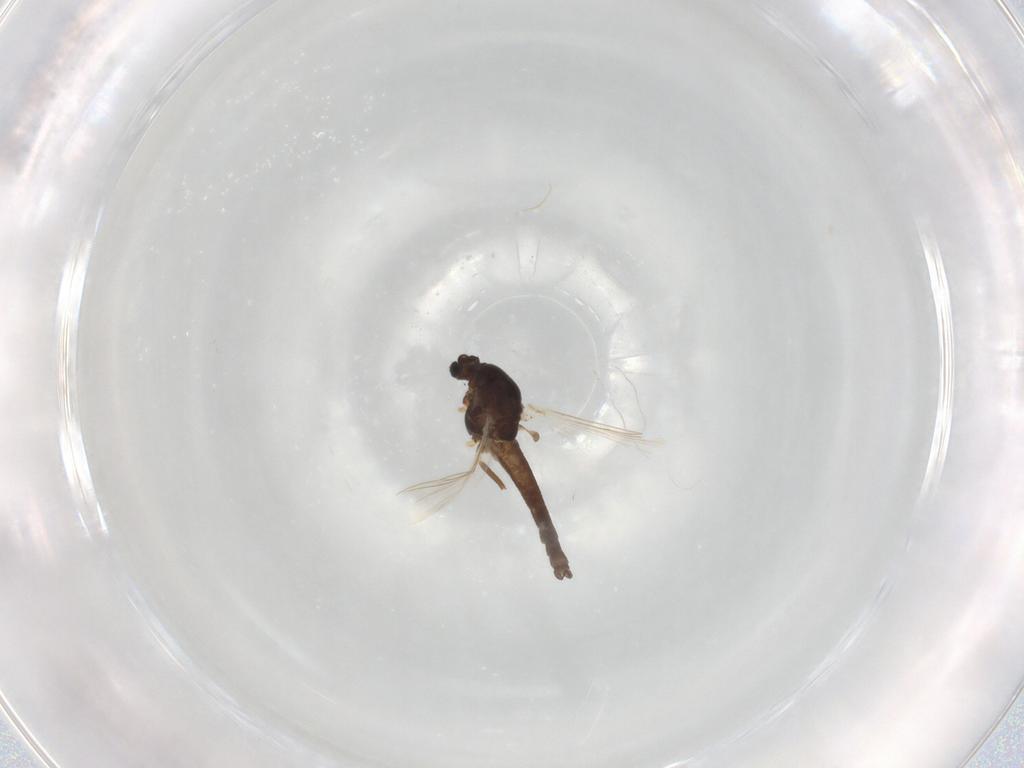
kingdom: Animalia
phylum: Arthropoda
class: Insecta
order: Diptera
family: Chironomidae
